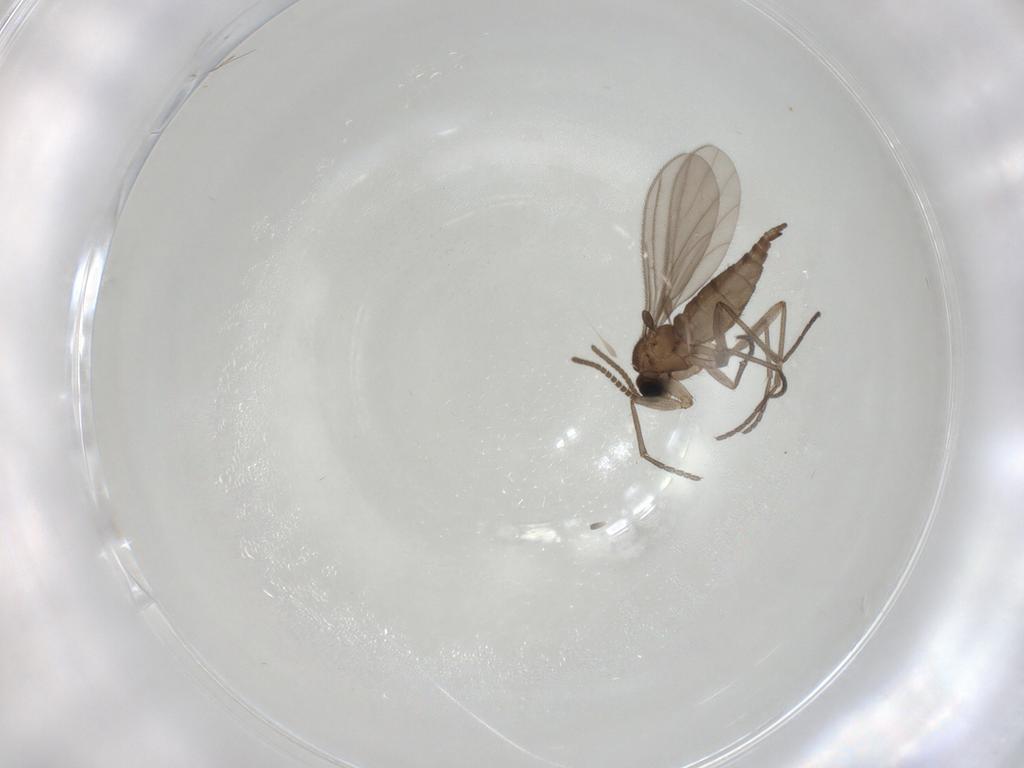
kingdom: Animalia
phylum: Arthropoda
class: Insecta
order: Diptera
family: Sciaridae
